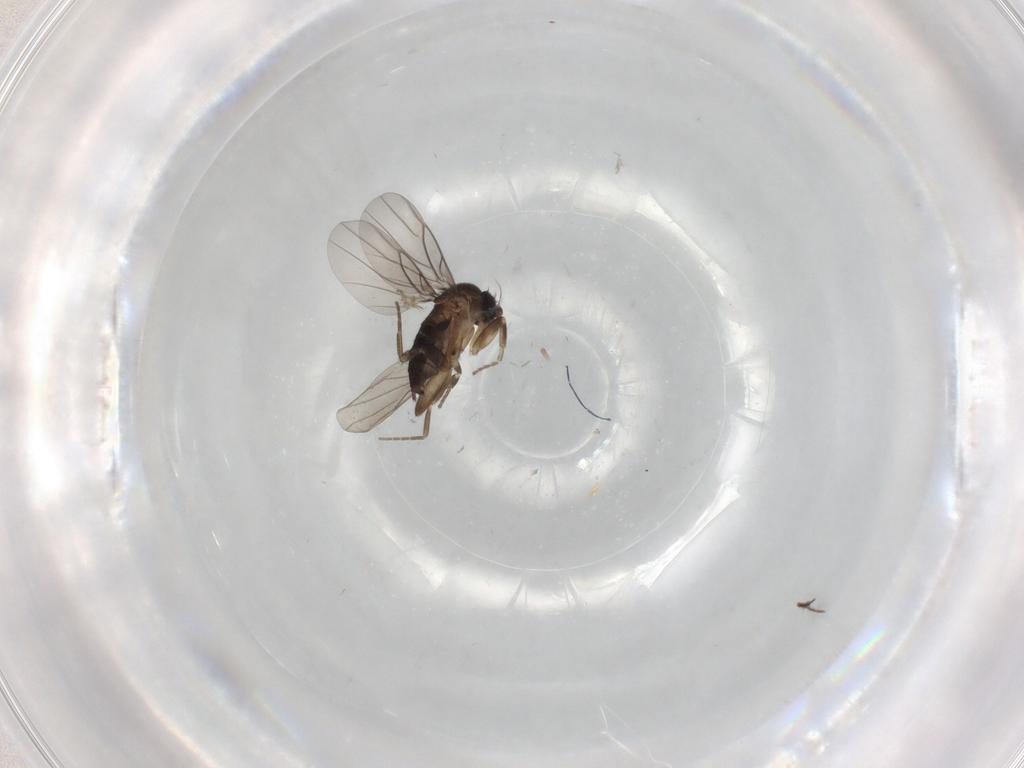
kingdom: Animalia
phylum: Arthropoda
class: Insecta
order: Diptera
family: Ceratopogonidae
